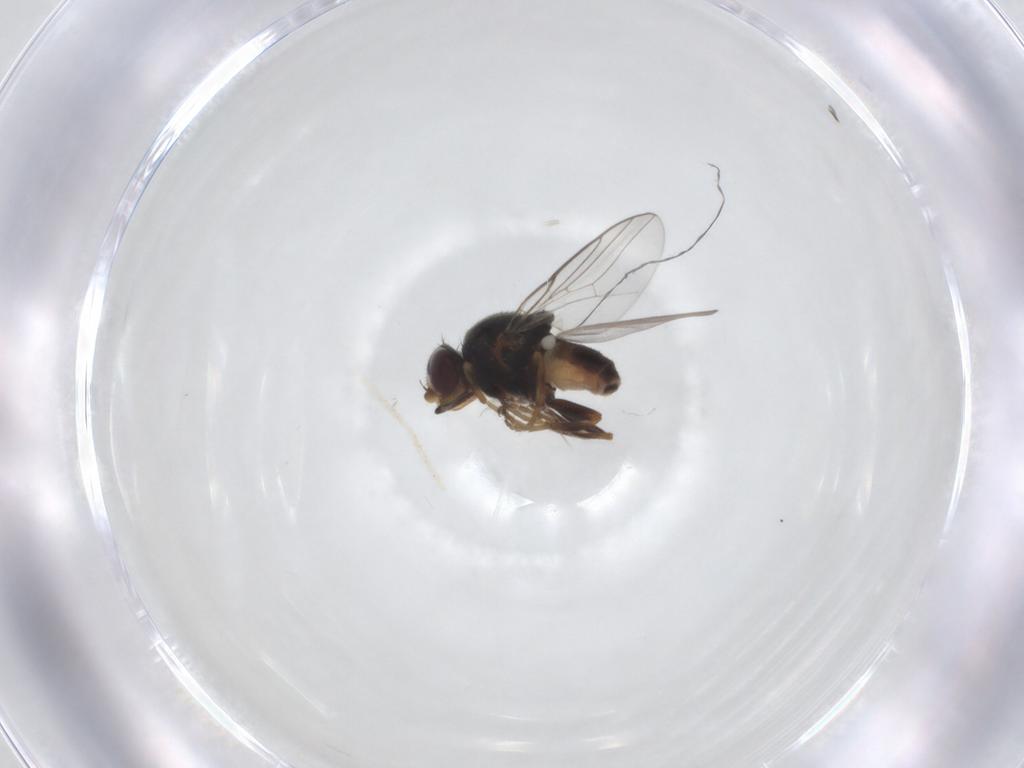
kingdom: Animalia
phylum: Arthropoda
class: Insecta
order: Diptera
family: Chloropidae
